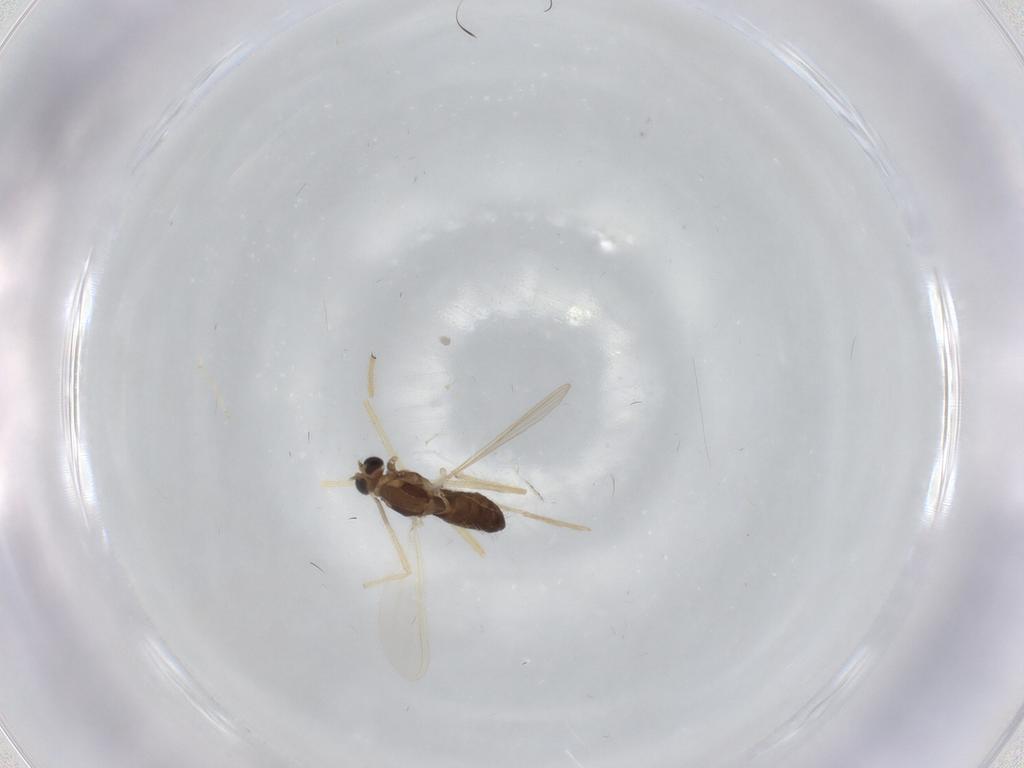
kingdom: Animalia
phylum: Arthropoda
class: Insecta
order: Diptera
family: Chironomidae
